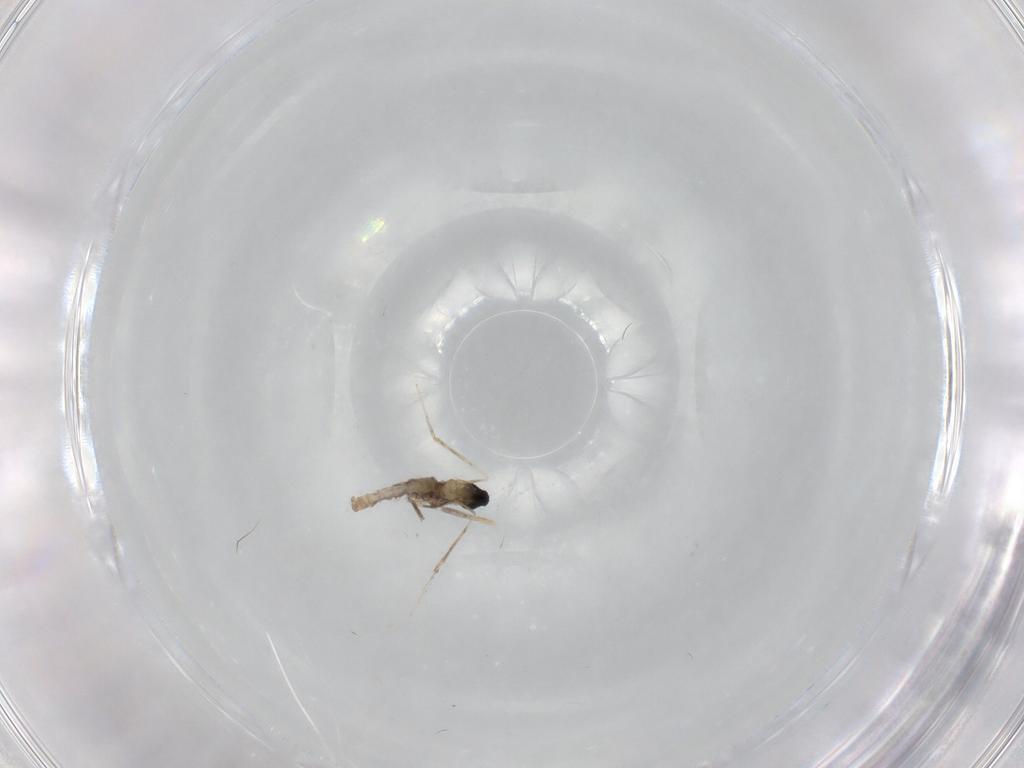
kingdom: Animalia
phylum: Arthropoda
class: Insecta
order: Diptera
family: Cecidomyiidae
